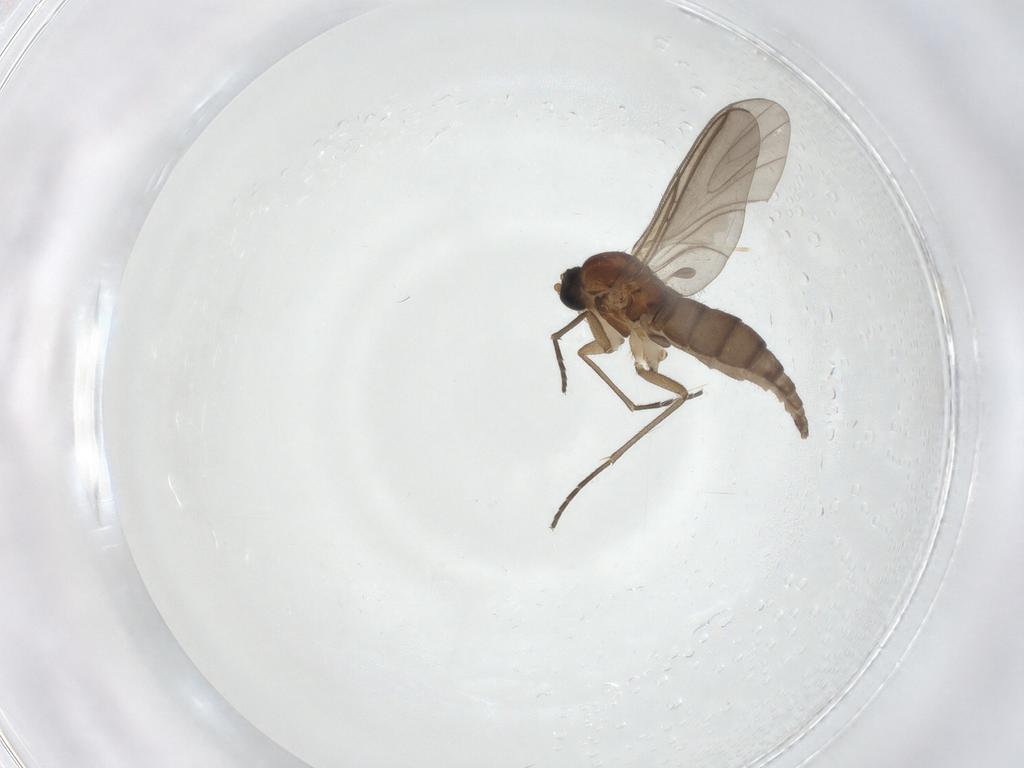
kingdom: Animalia
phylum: Arthropoda
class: Insecta
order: Diptera
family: Sciaridae
